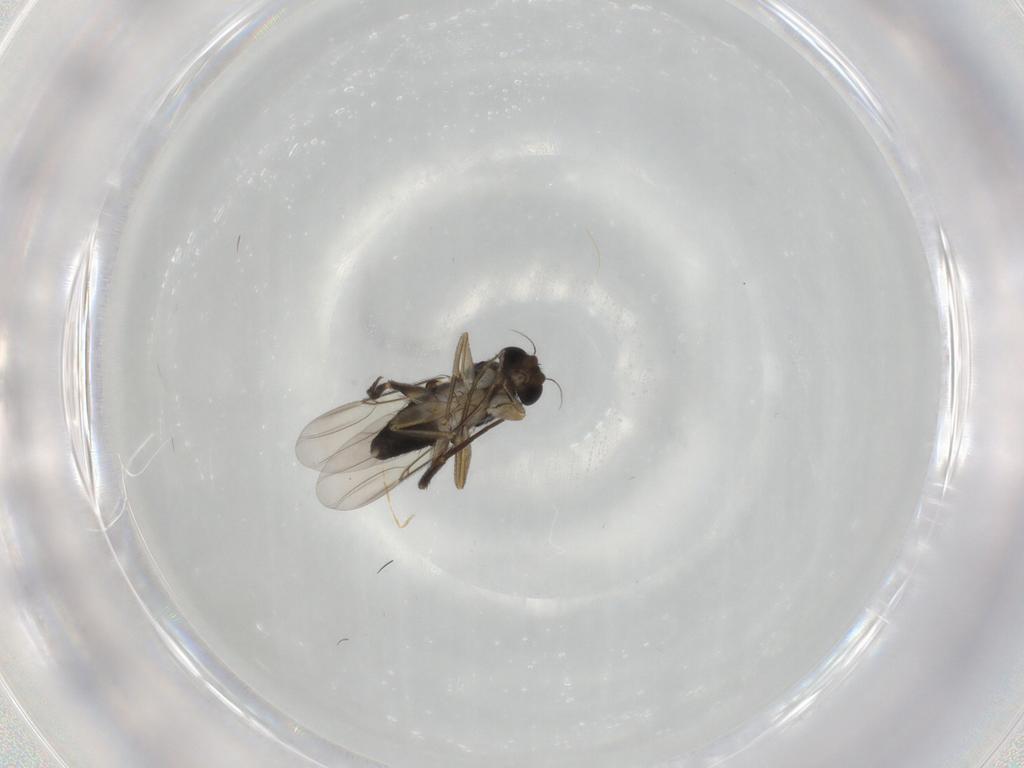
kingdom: Animalia
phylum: Arthropoda
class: Insecta
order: Diptera
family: Phoridae
